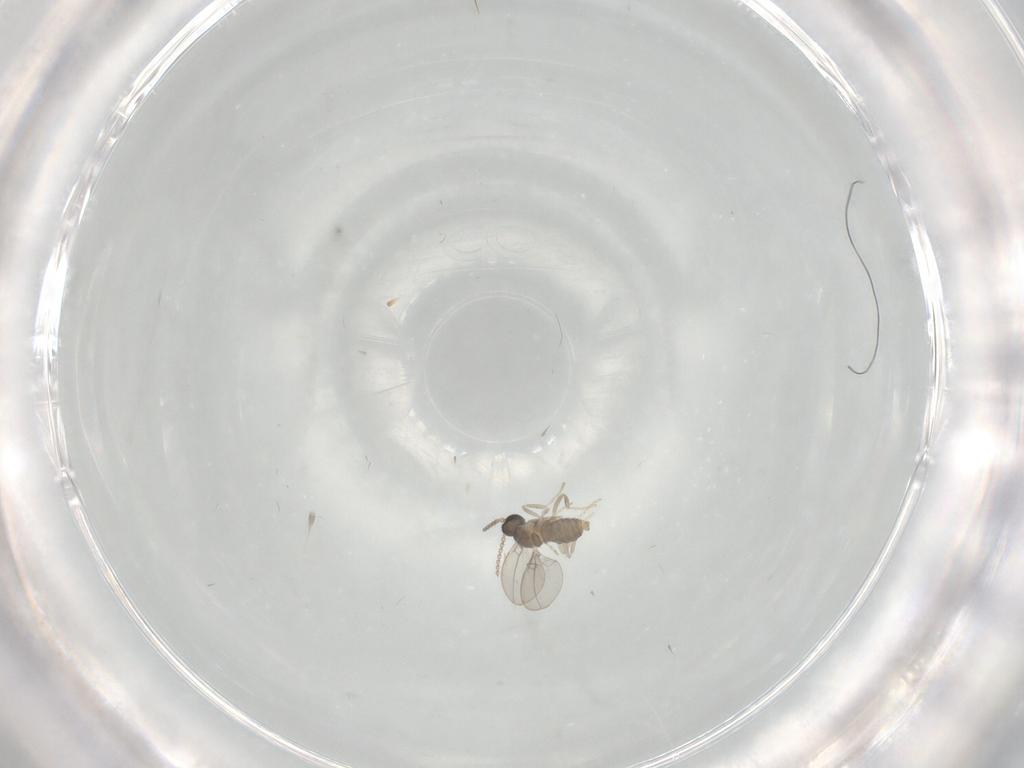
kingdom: Animalia
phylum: Arthropoda
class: Insecta
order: Diptera
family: Cecidomyiidae
